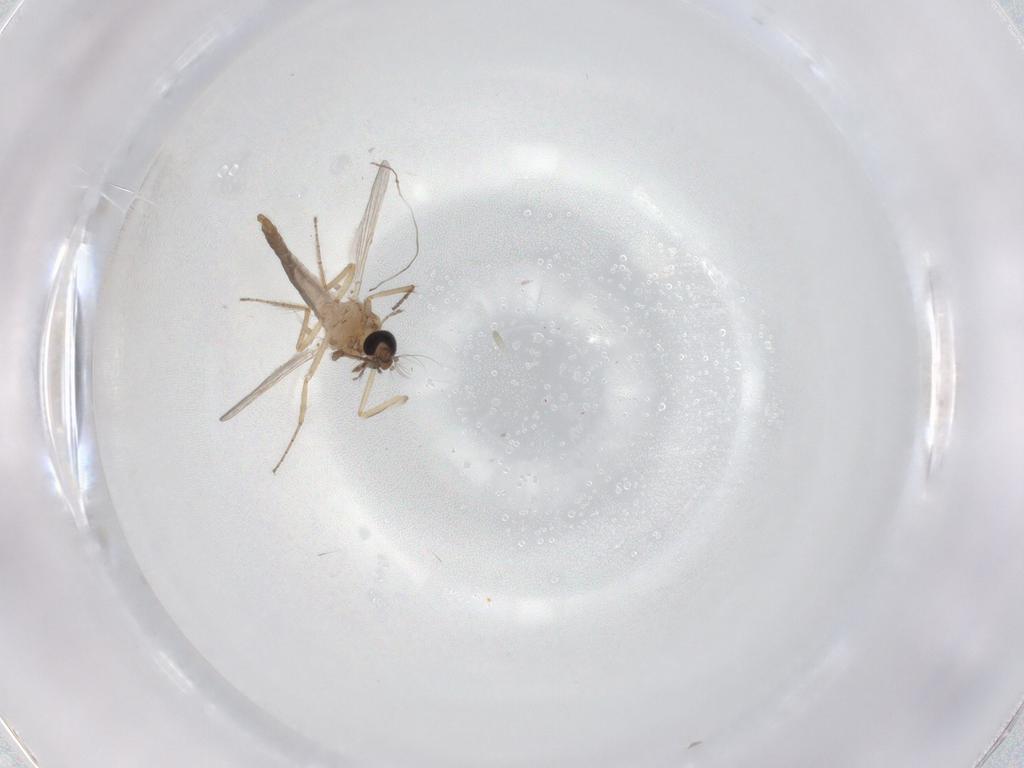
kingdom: Animalia
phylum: Arthropoda
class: Insecta
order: Diptera
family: Ceratopogonidae
